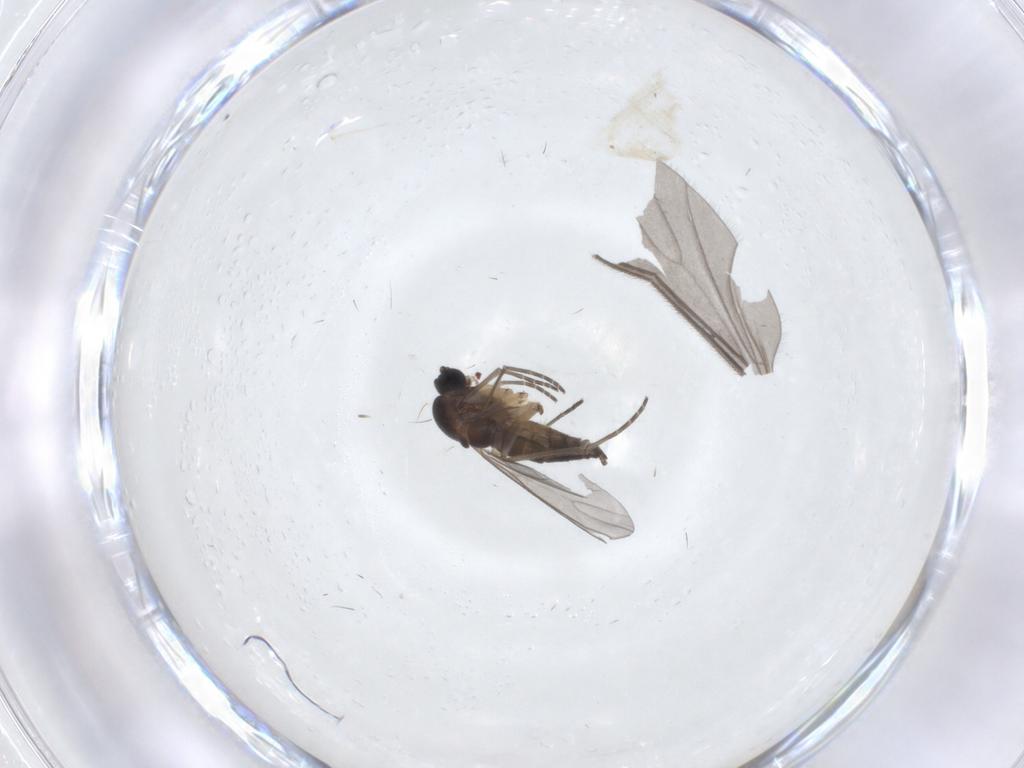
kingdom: Animalia
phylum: Arthropoda
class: Insecta
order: Diptera
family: Sciaridae
